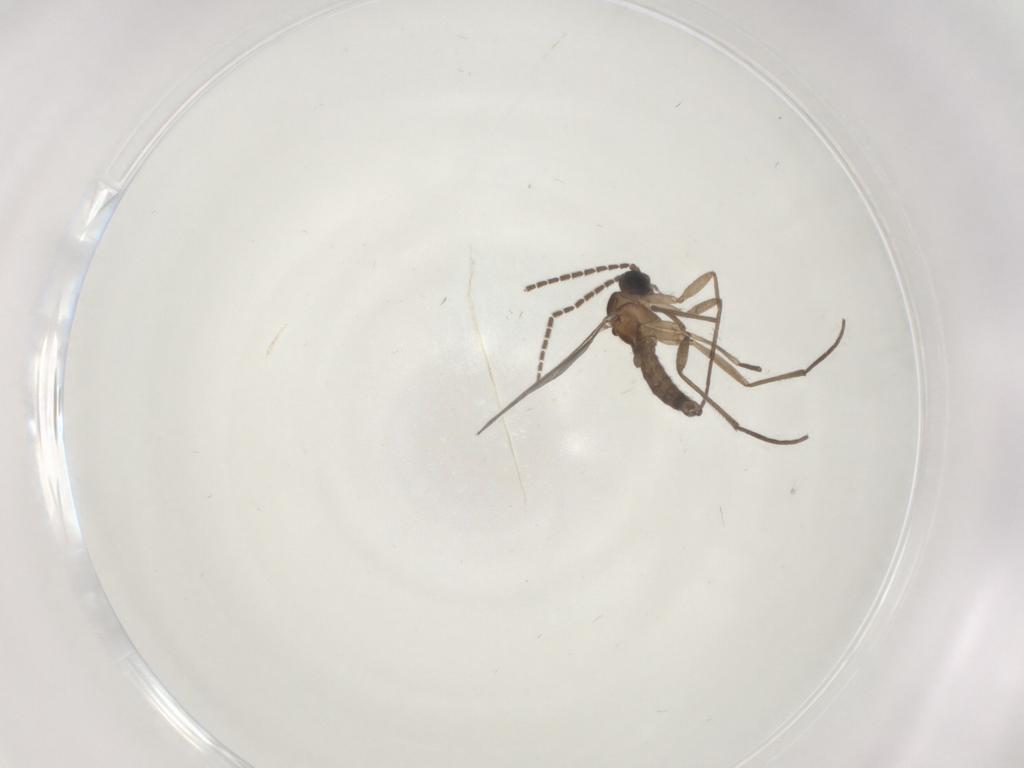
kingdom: Animalia
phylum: Arthropoda
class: Insecta
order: Diptera
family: Sciaridae
